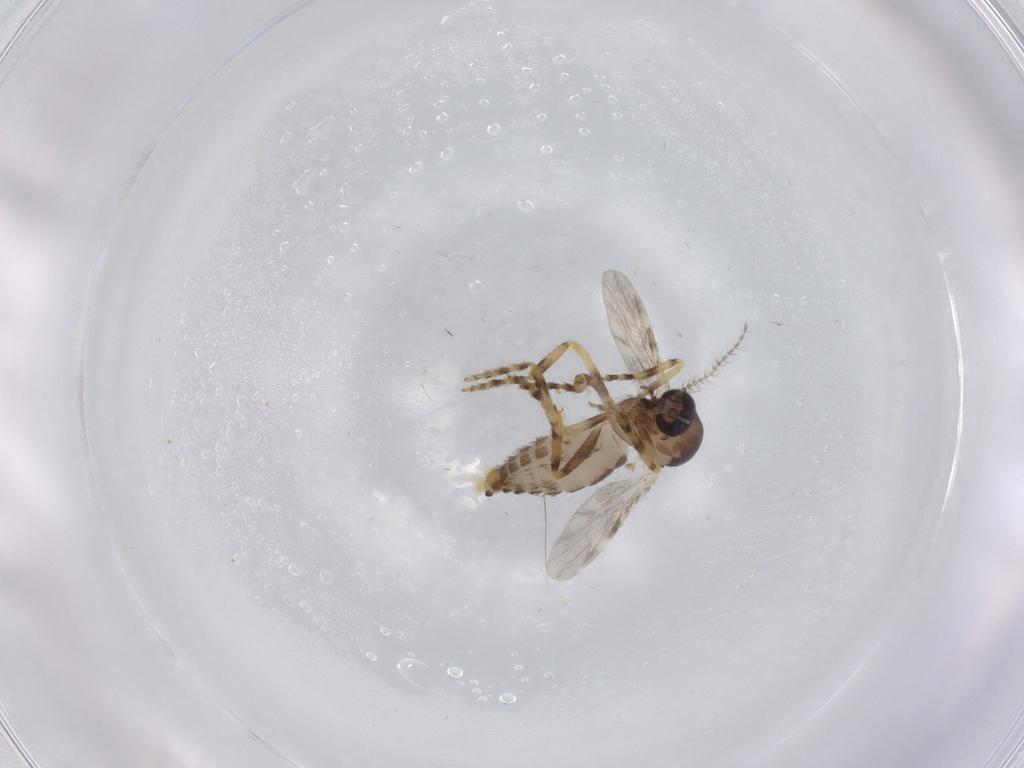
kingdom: Animalia
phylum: Arthropoda
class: Insecta
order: Diptera
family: Ceratopogonidae
